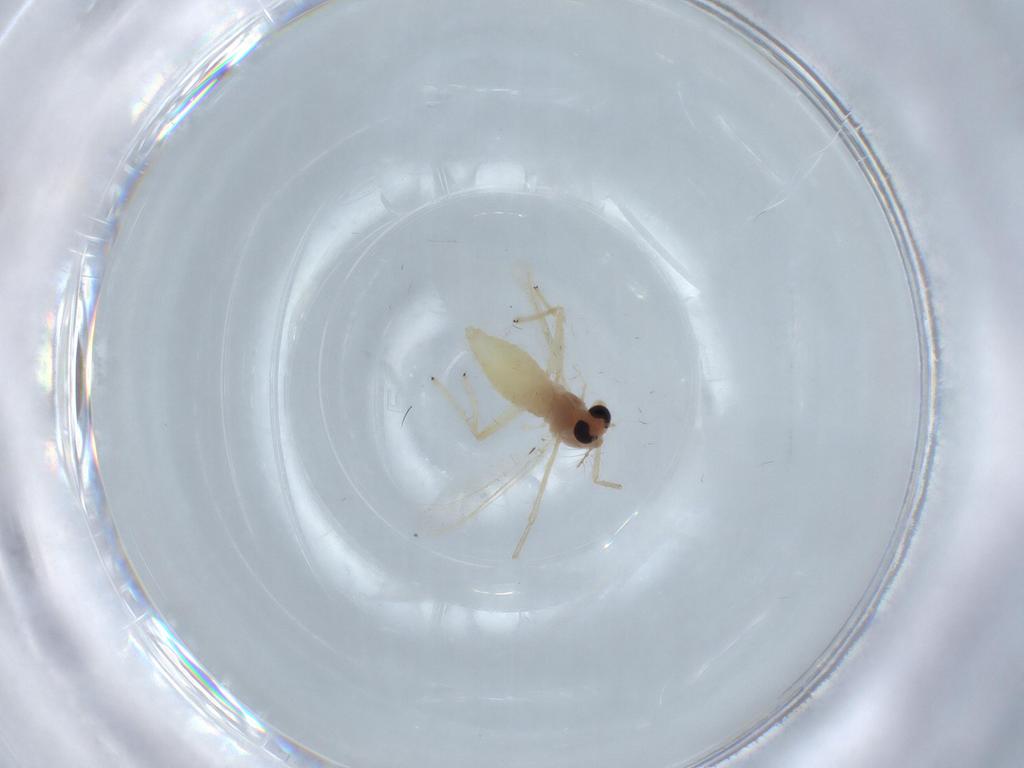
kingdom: Animalia
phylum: Arthropoda
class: Insecta
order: Diptera
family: Chironomidae
